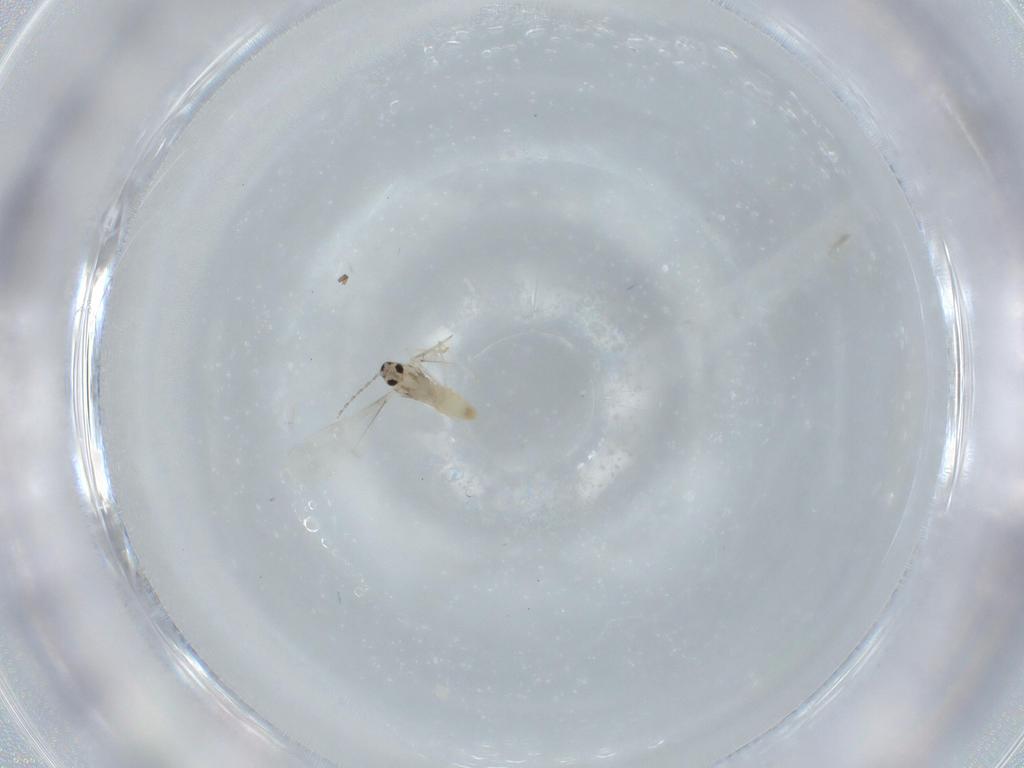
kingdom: Animalia
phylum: Arthropoda
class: Insecta
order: Diptera
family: Cecidomyiidae
